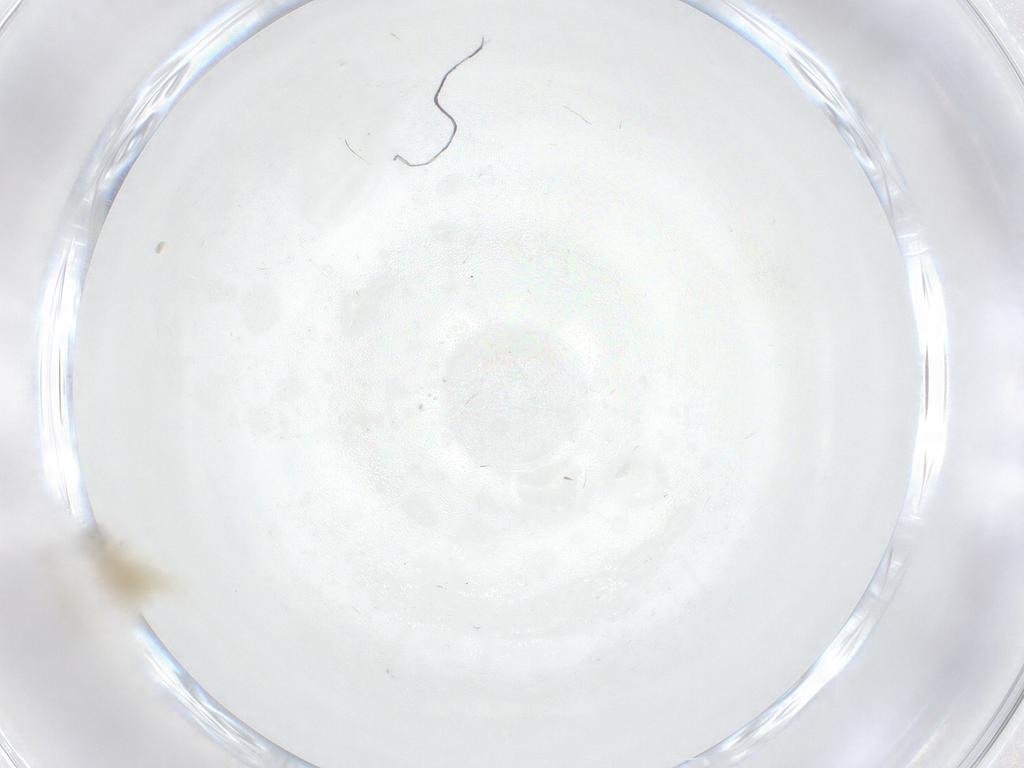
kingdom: Animalia
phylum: Arthropoda
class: Insecta
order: Diptera
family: Chironomidae
